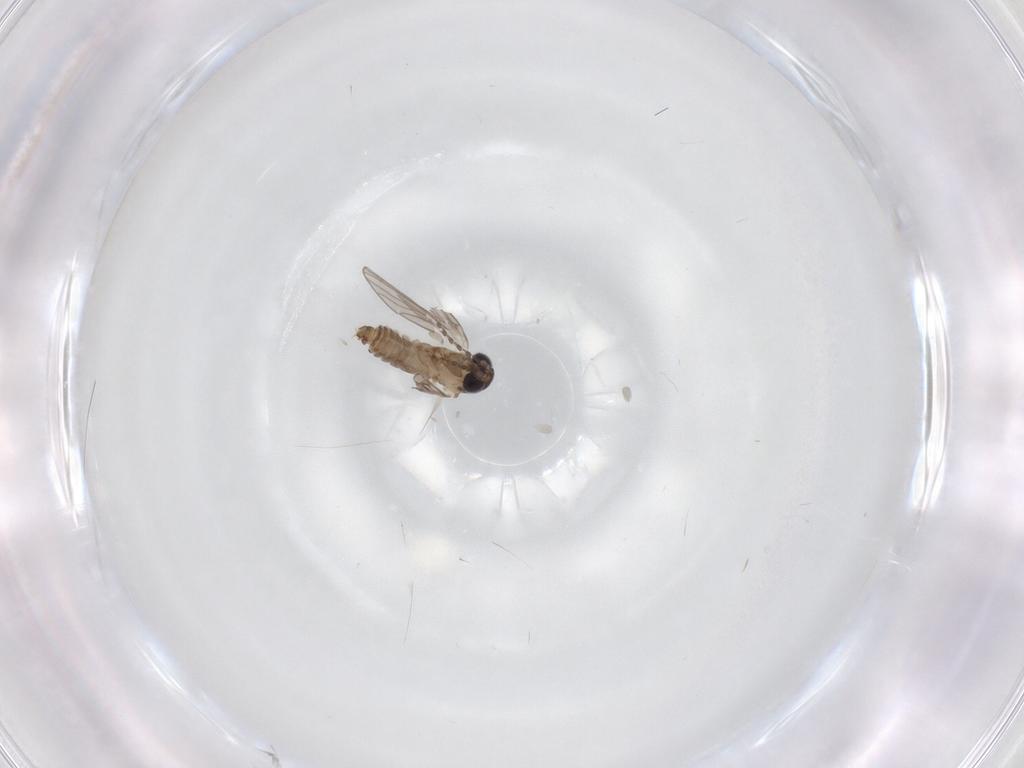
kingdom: Animalia
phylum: Arthropoda
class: Insecta
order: Diptera
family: Psychodidae
